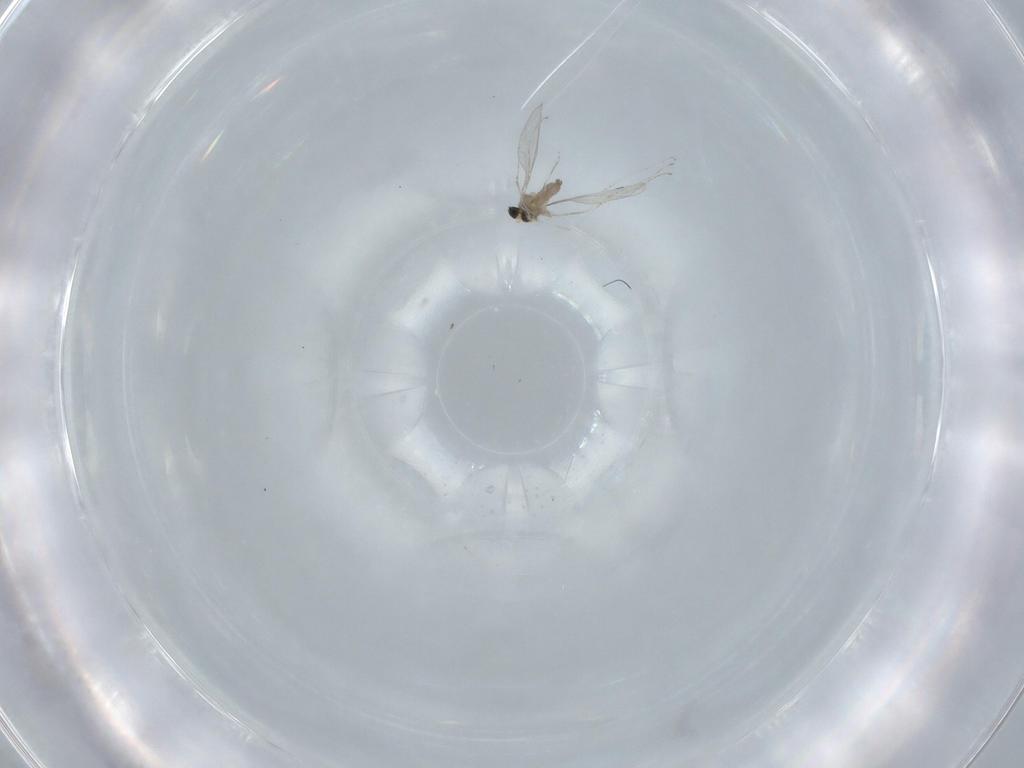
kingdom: Animalia
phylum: Arthropoda
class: Insecta
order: Diptera
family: Cecidomyiidae
